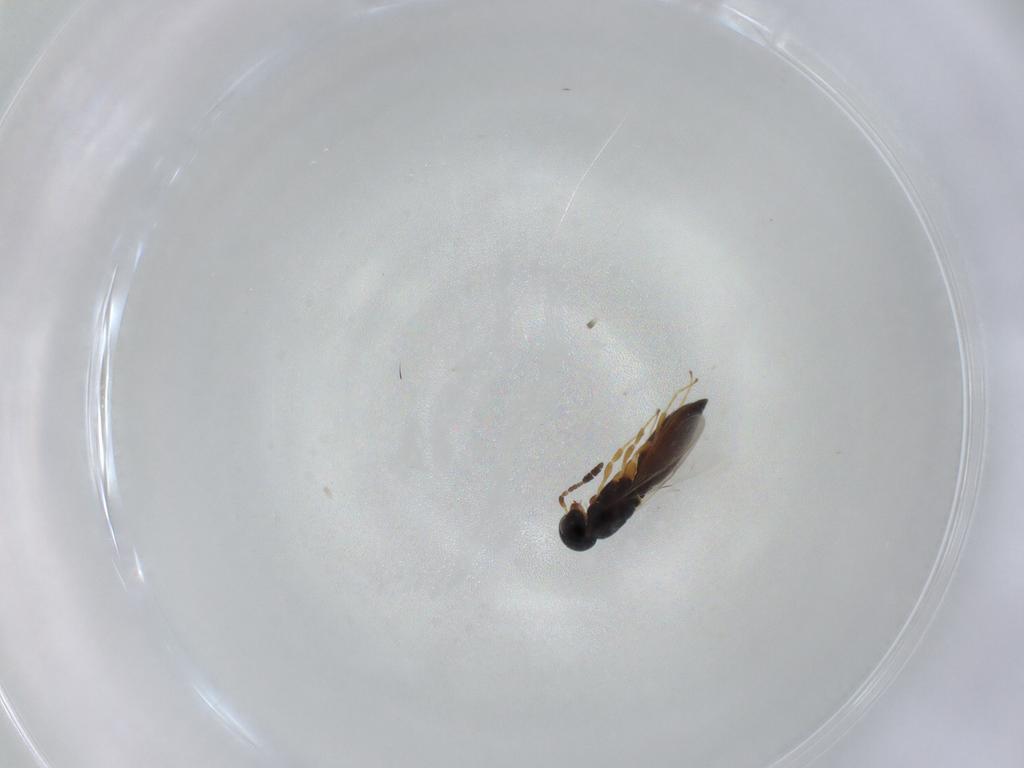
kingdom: Animalia
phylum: Arthropoda
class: Insecta
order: Hymenoptera
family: Scelionidae
